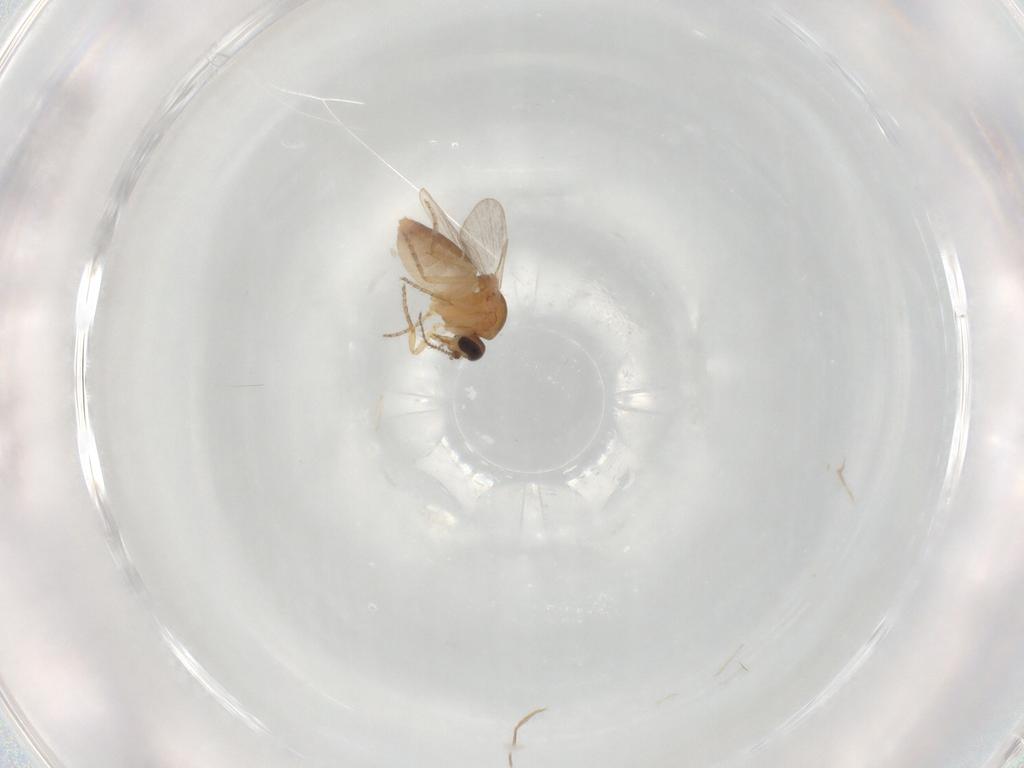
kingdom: Animalia
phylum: Arthropoda
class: Insecta
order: Diptera
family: Ceratopogonidae
